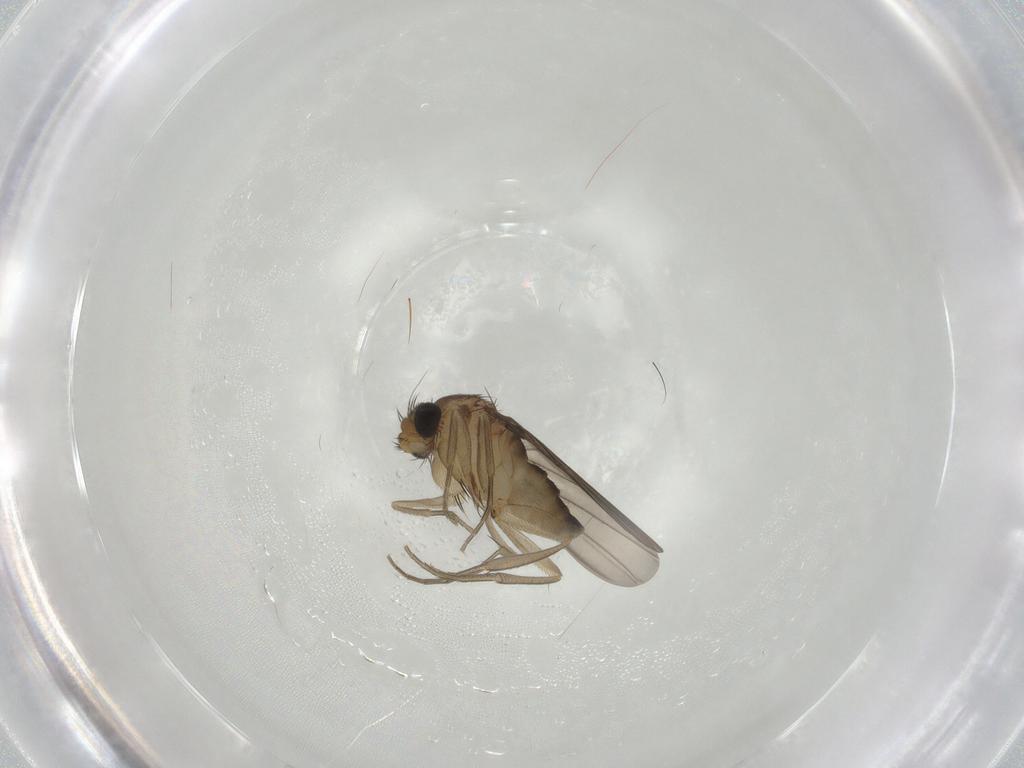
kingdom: Animalia
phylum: Arthropoda
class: Insecta
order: Diptera
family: Phoridae
